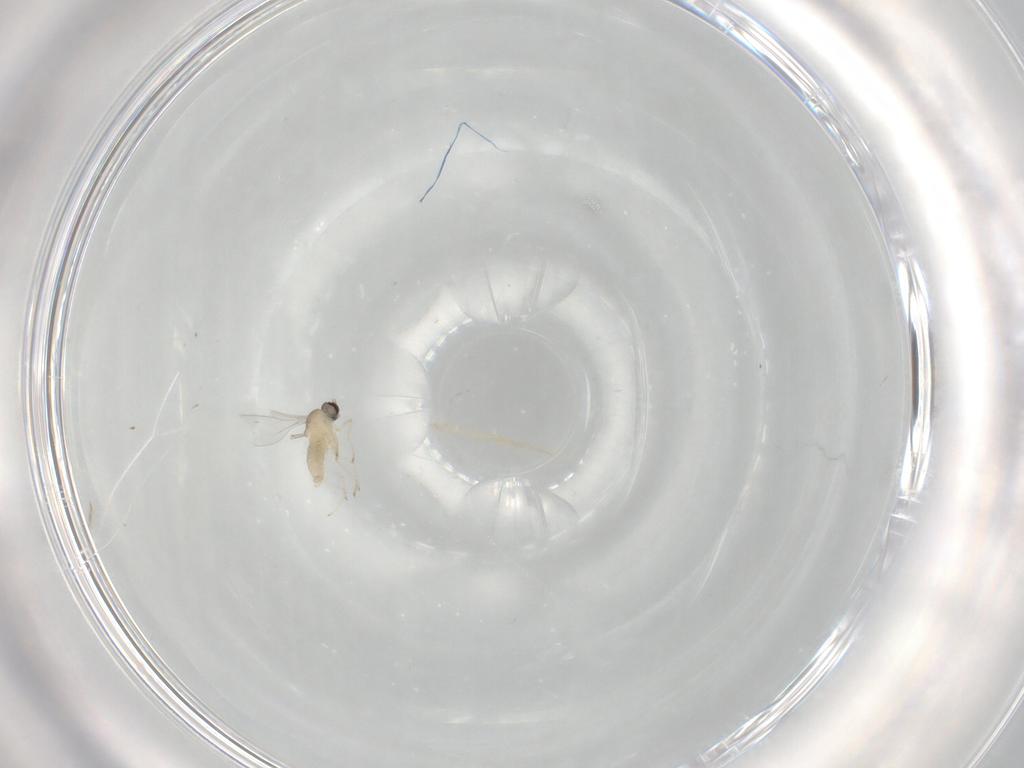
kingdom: Animalia
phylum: Arthropoda
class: Insecta
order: Diptera
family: Cecidomyiidae
